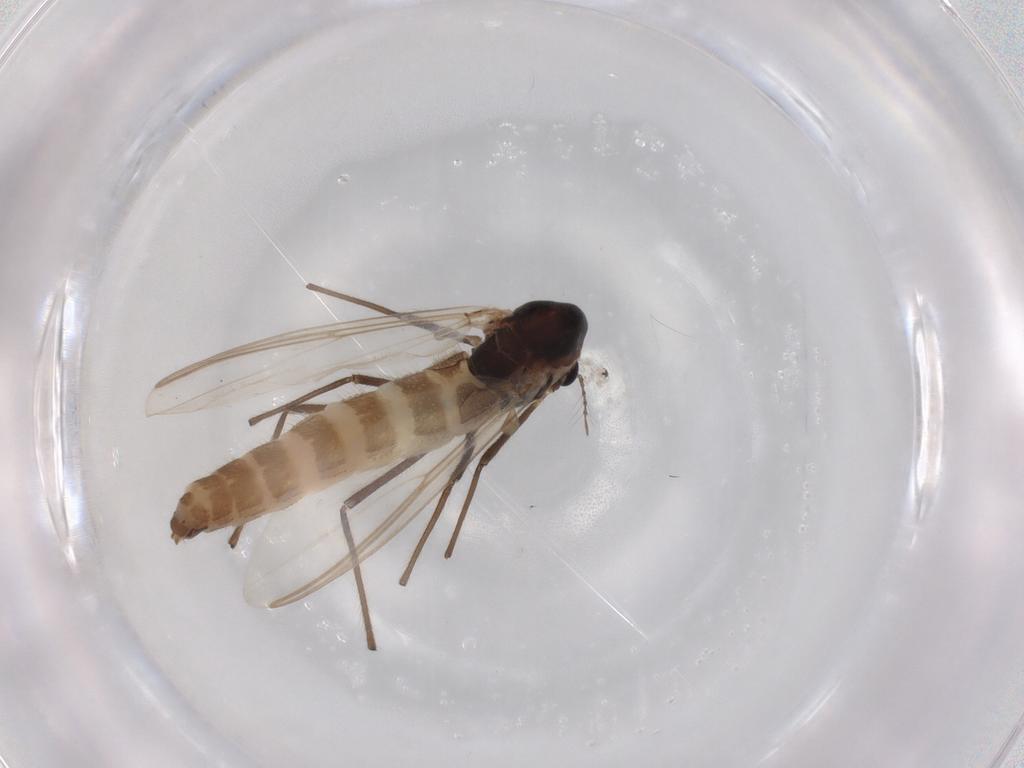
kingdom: Animalia
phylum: Arthropoda
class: Insecta
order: Diptera
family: Chironomidae
